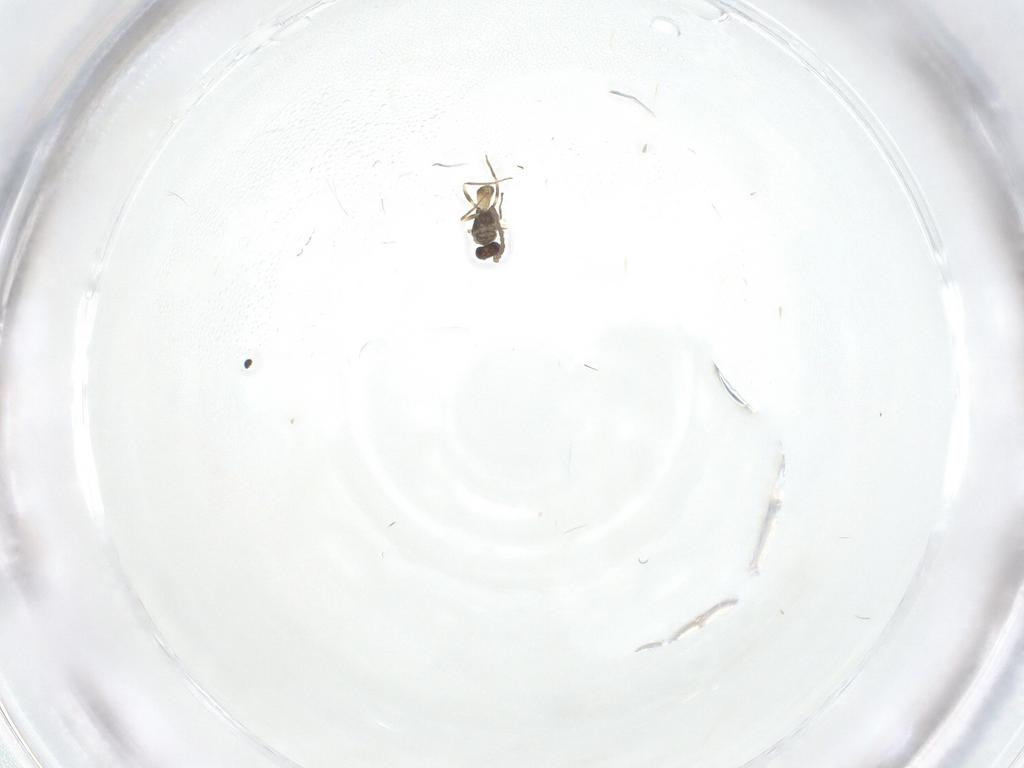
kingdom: Animalia
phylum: Arthropoda
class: Insecta
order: Hymenoptera
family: Mymaridae
